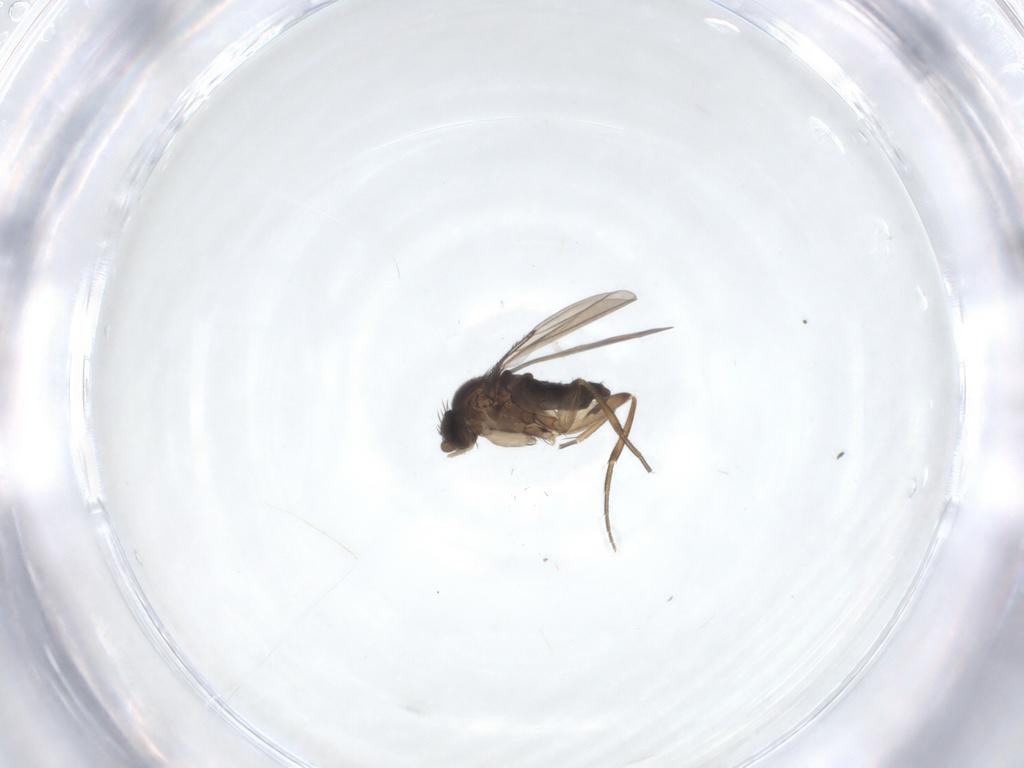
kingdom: Animalia
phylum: Arthropoda
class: Insecta
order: Diptera
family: Phoridae
